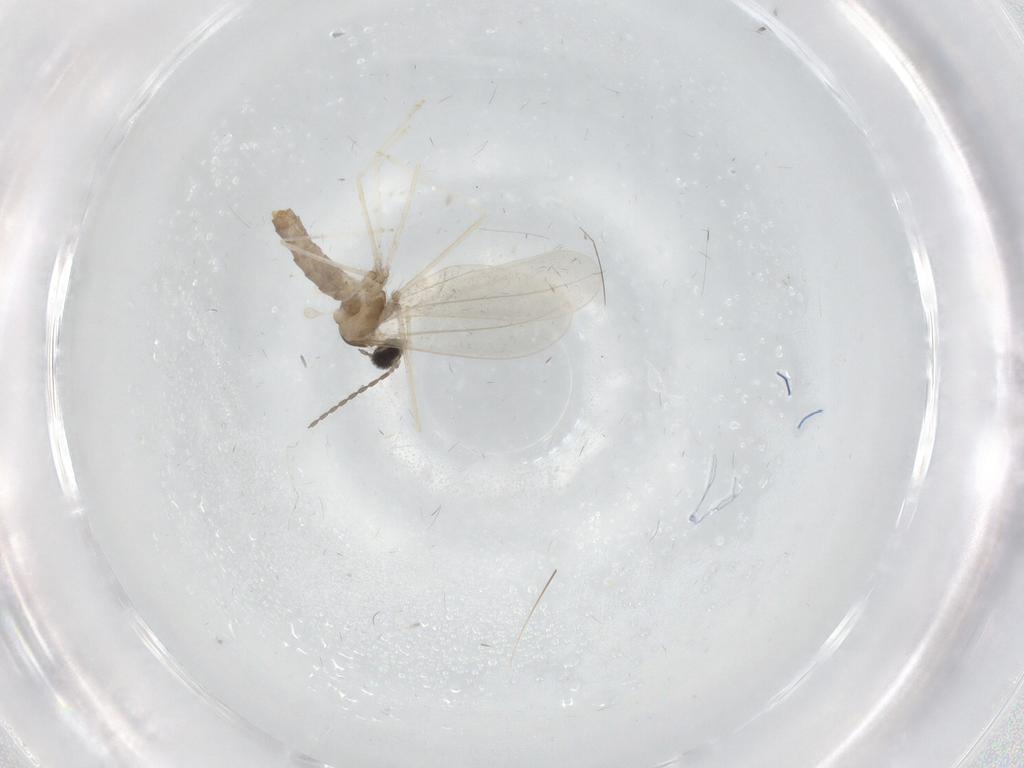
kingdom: Animalia
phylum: Arthropoda
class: Insecta
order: Diptera
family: Cecidomyiidae
